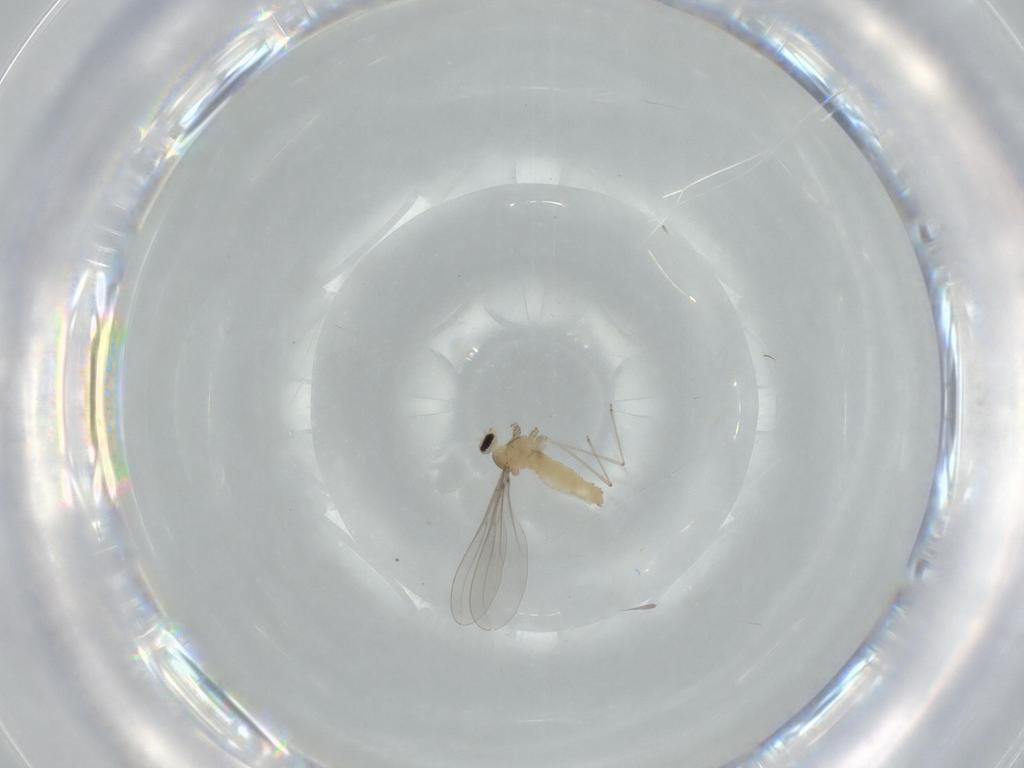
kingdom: Animalia
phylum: Arthropoda
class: Insecta
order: Diptera
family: Cecidomyiidae
